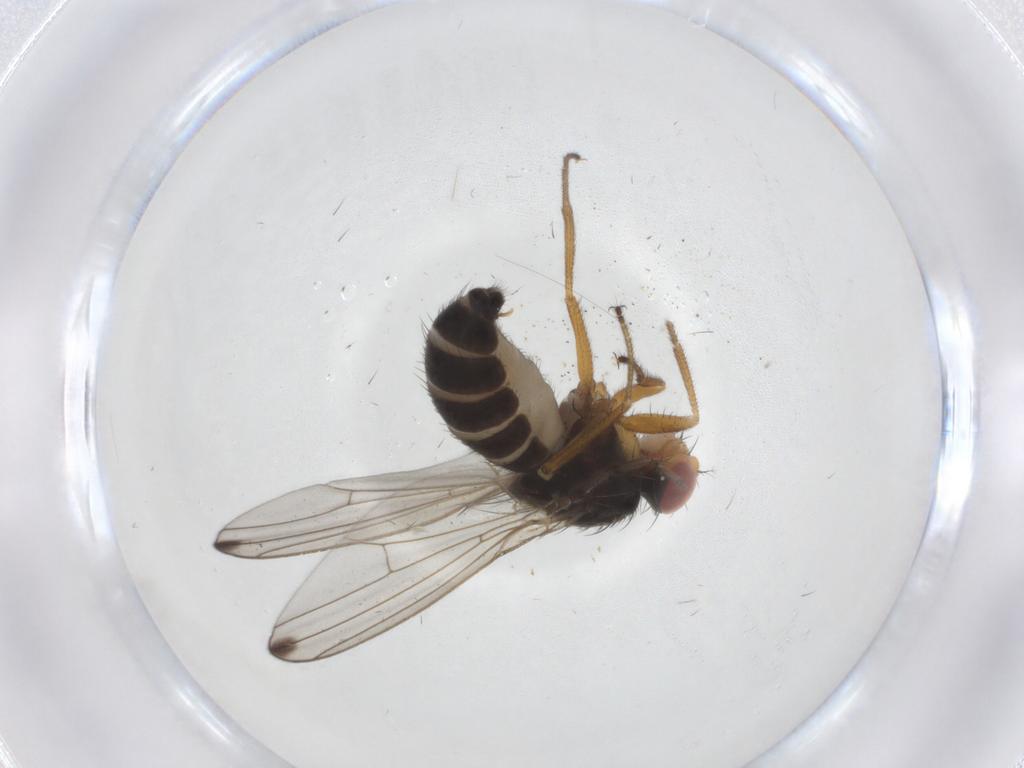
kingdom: Animalia
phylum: Arthropoda
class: Insecta
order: Diptera
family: Drosophilidae
